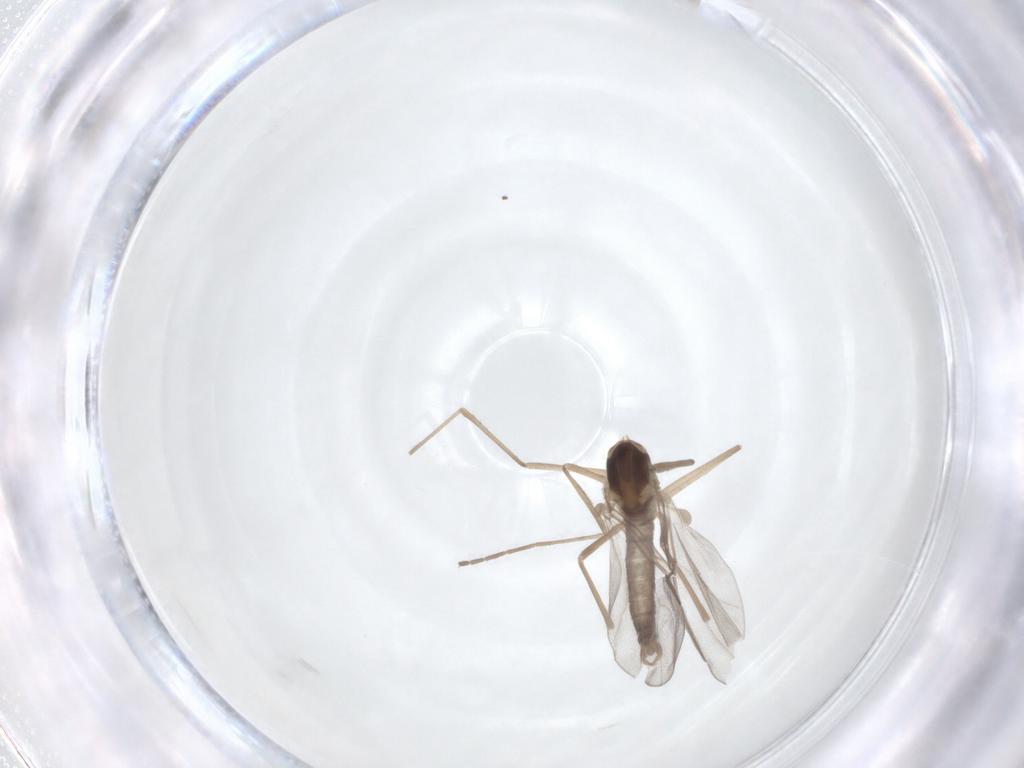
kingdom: Animalia
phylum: Arthropoda
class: Insecta
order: Diptera
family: Cecidomyiidae
